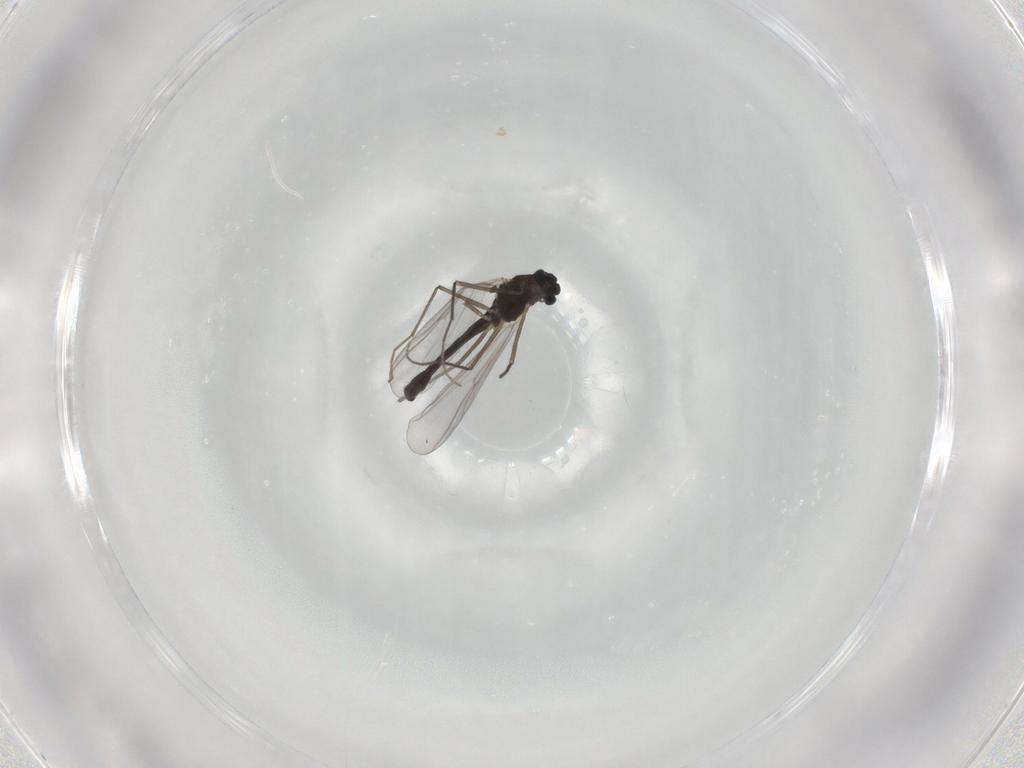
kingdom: Animalia
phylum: Arthropoda
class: Insecta
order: Diptera
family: Chironomidae
